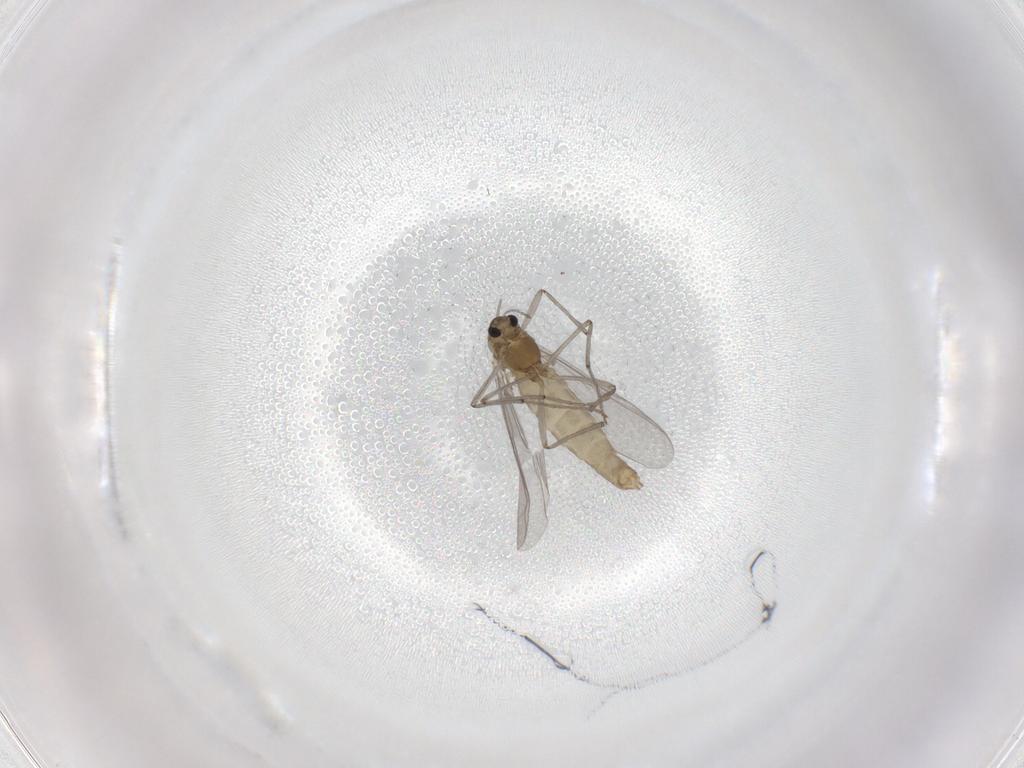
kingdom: Animalia
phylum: Arthropoda
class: Insecta
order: Diptera
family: Chironomidae
